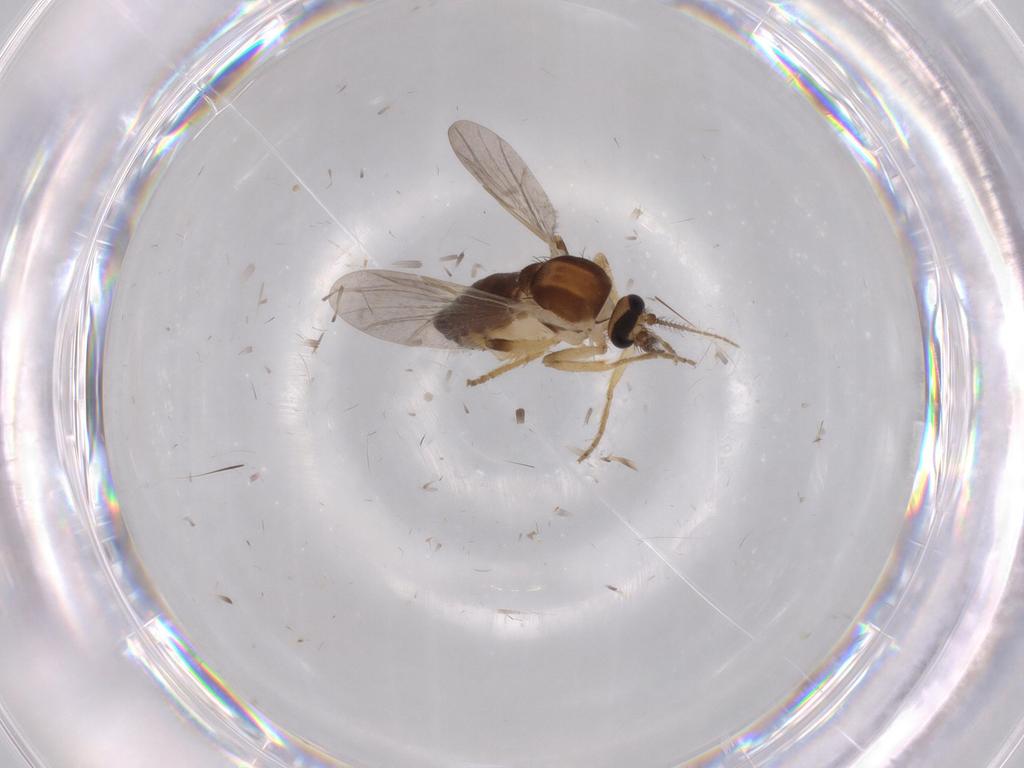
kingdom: Animalia
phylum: Arthropoda
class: Insecta
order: Diptera
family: Ceratopogonidae
